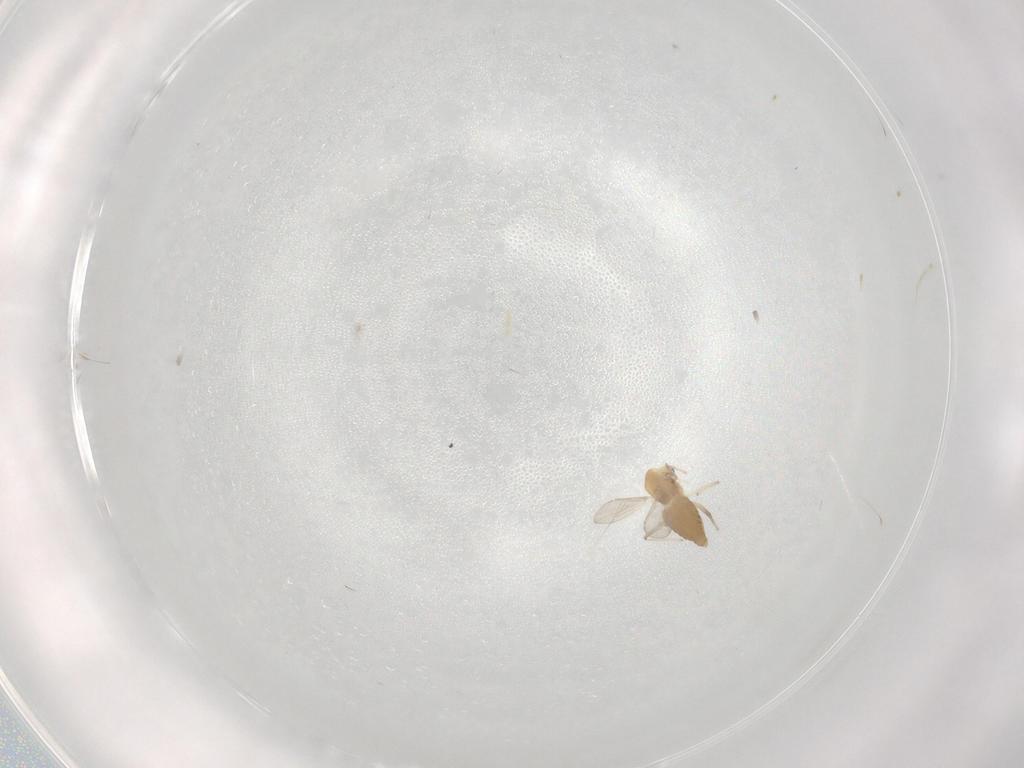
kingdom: Animalia
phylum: Arthropoda
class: Insecta
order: Diptera
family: Chironomidae
